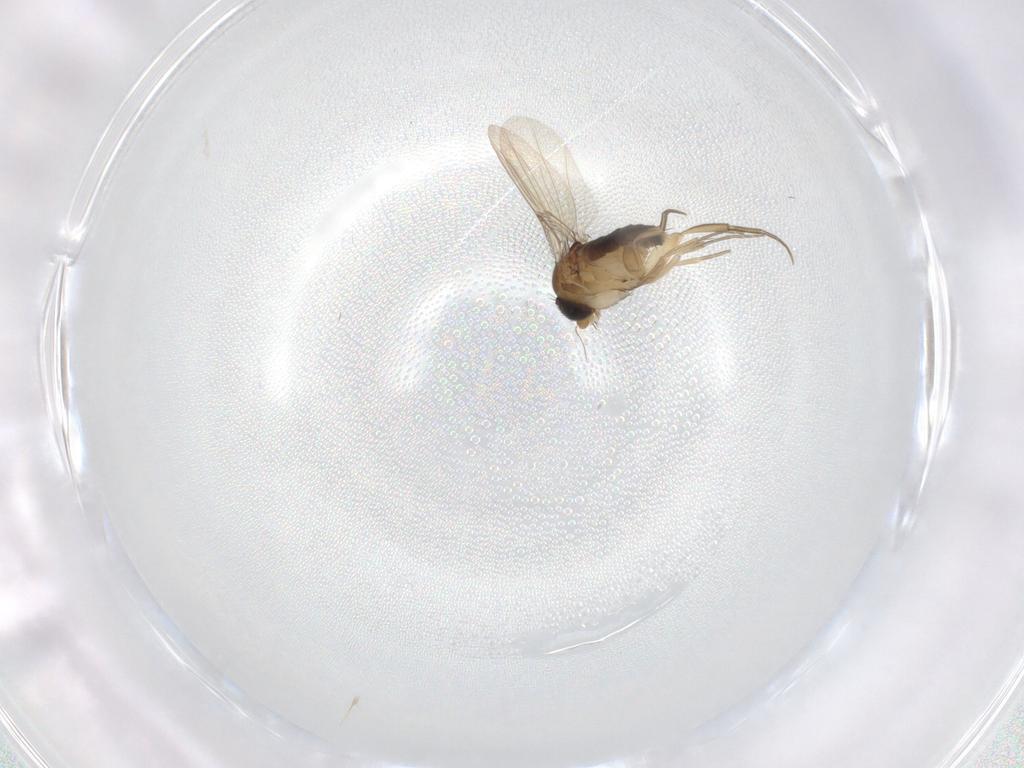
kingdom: Animalia
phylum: Arthropoda
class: Insecta
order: Diptera
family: Phoridae
